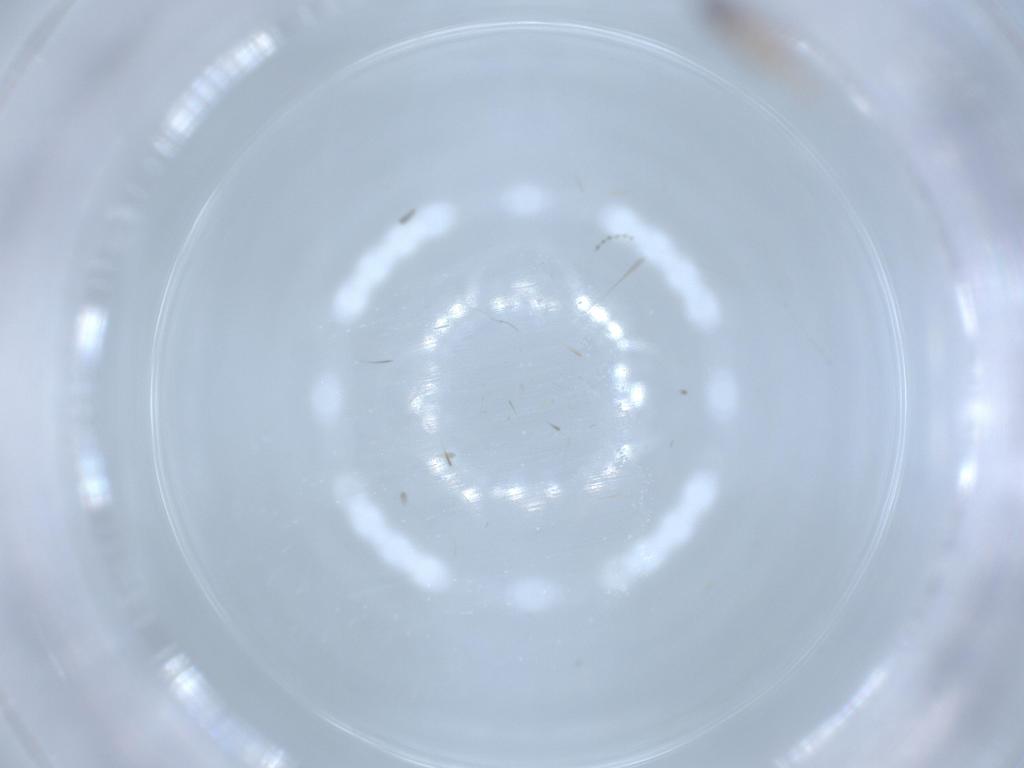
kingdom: Animalia
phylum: Arthropoda
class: Insecta
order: Diptera
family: Cecidomyiidae
